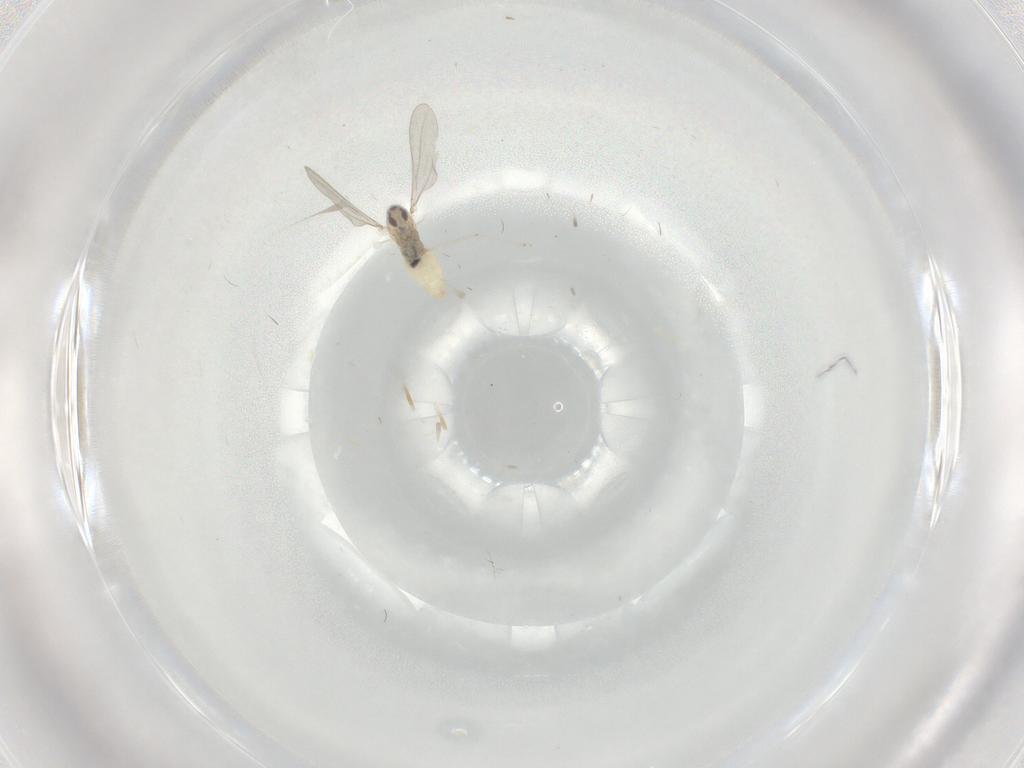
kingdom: Animalia
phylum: Arthropoda
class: Insecta
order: Diptera
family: Cecidomyiidae
